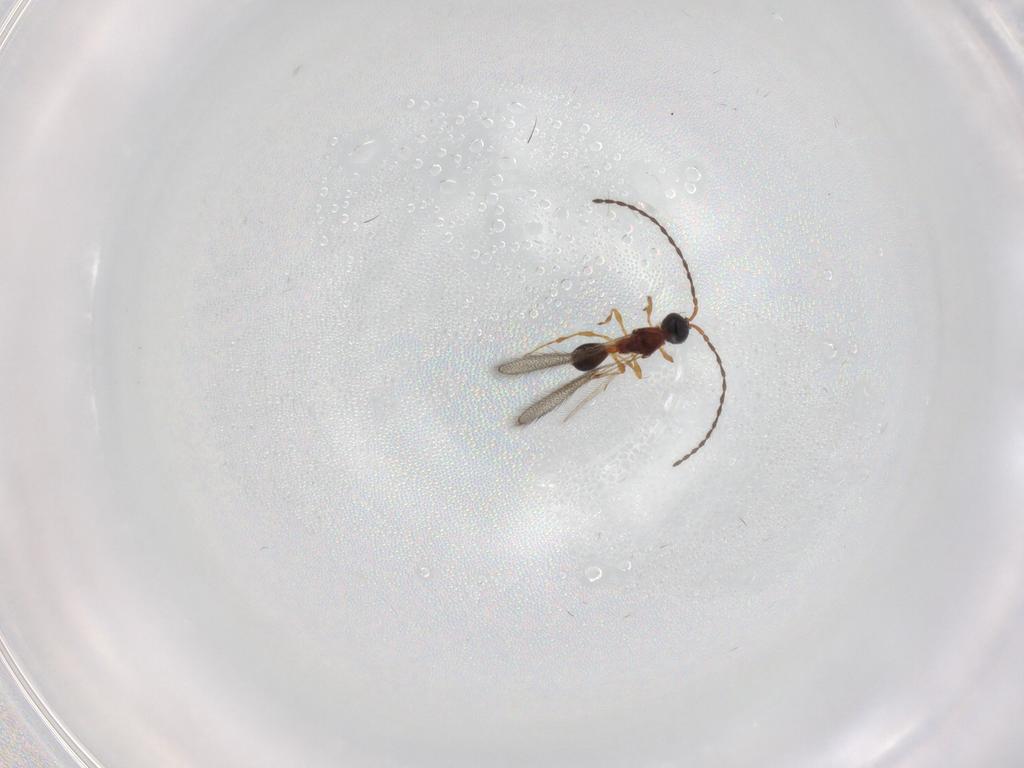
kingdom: Animalia
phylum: Arthropoda
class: Insecta
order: Hymenoptera
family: Diapriidae
